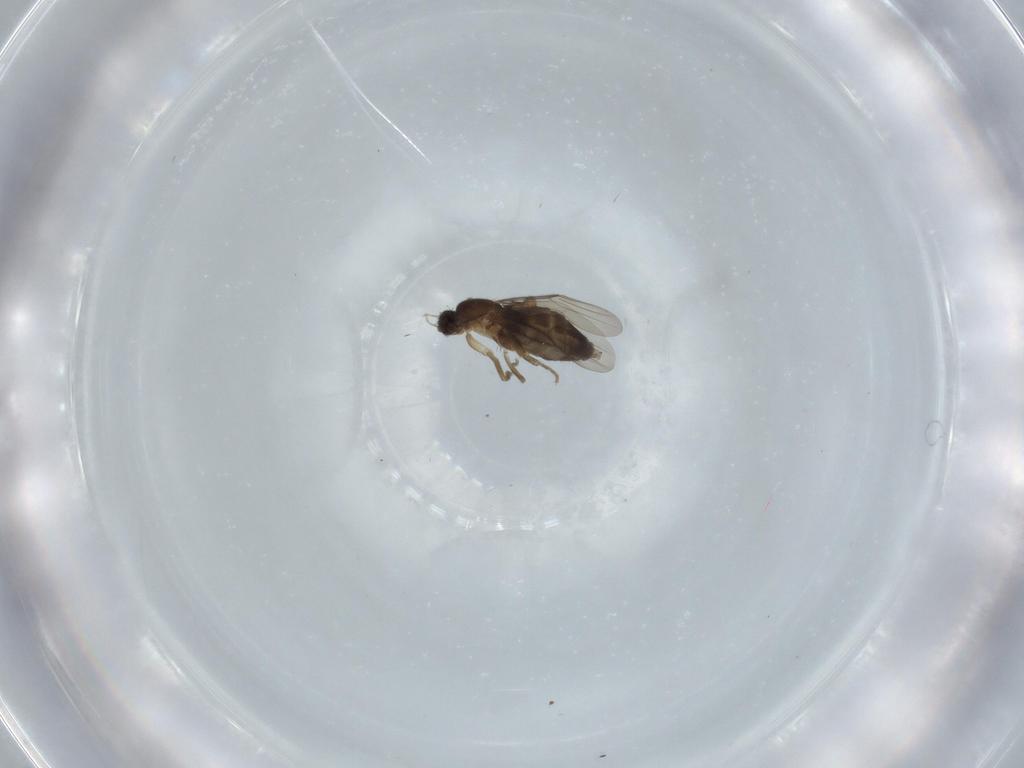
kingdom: Animalia
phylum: Arthropoda
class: Insecta
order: Diptera
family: Phoridae
